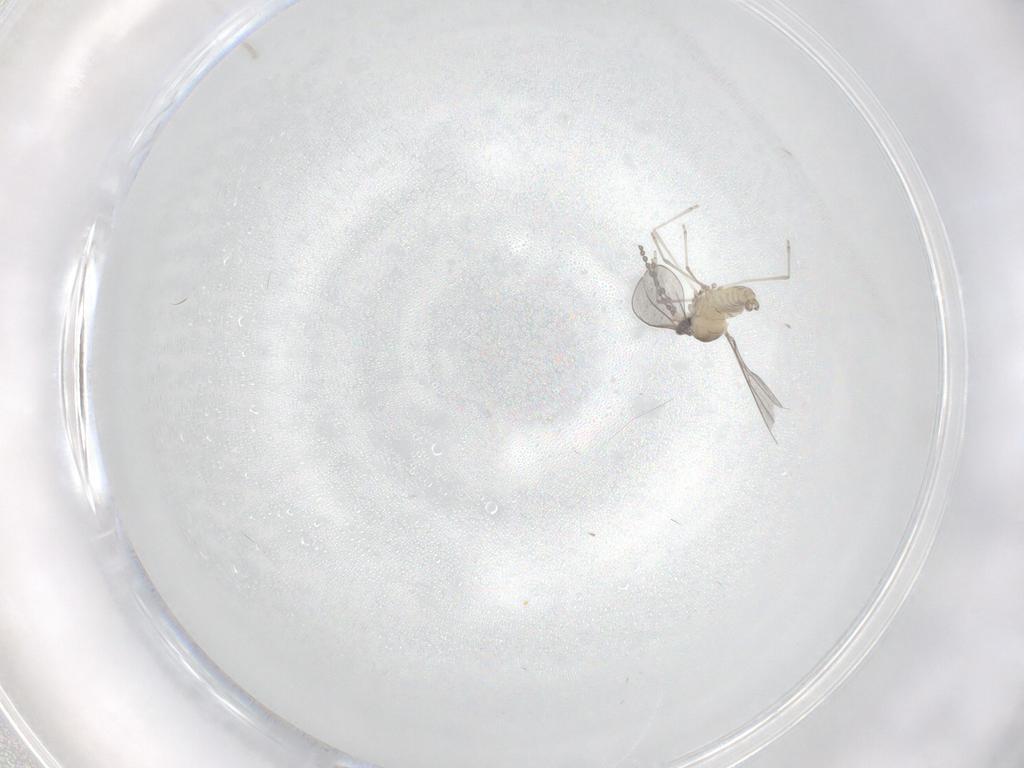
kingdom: Animalia
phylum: Arthropoda
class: Insecta
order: Diptera
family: Cecidomyiidae
